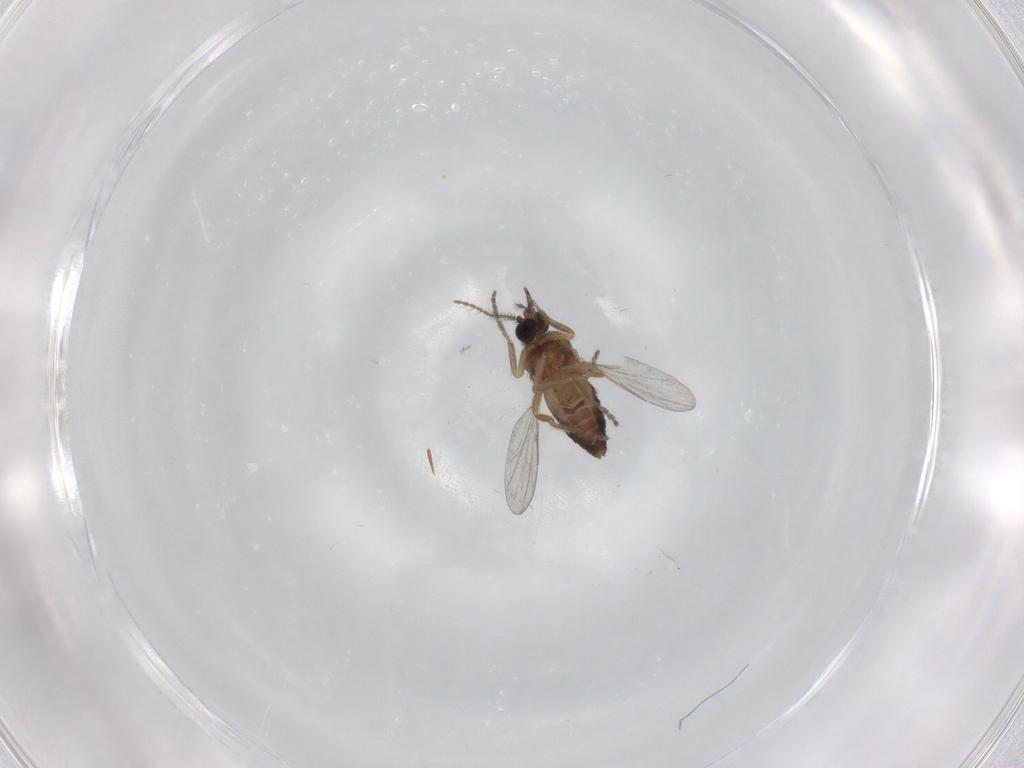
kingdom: Animalia
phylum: Arthropoda
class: Insecta
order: Diptera
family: Ceratopogonidae
